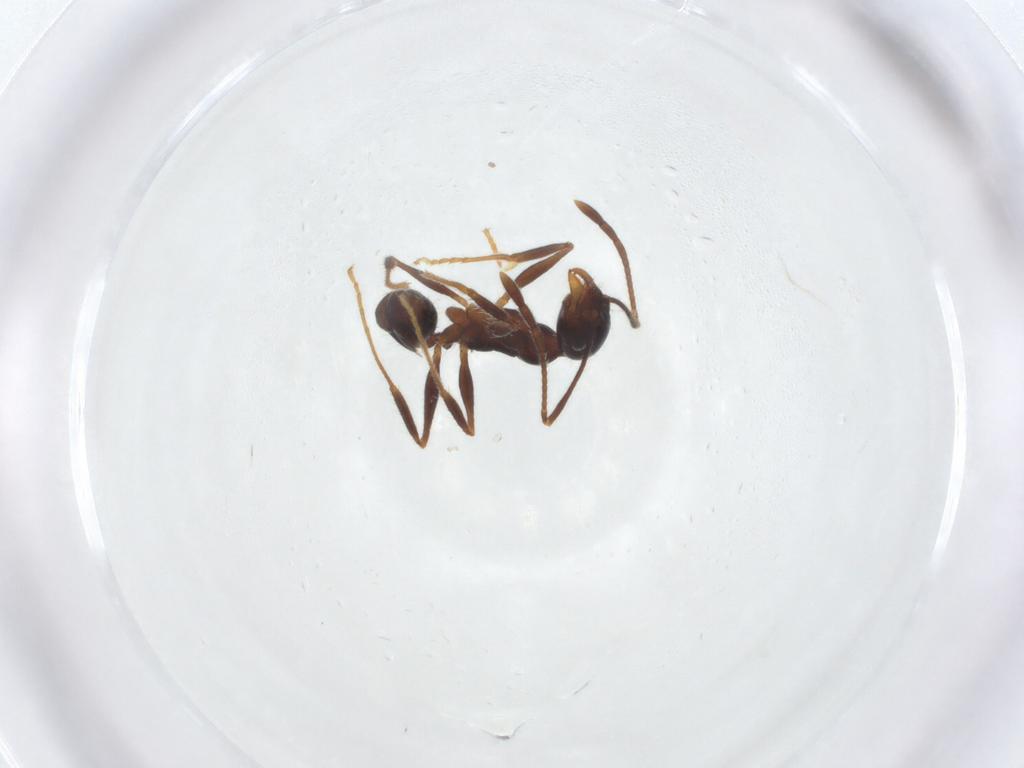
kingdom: Animalia
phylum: Arthropoda
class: Insecta
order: Hymenoptera
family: Formicidae
